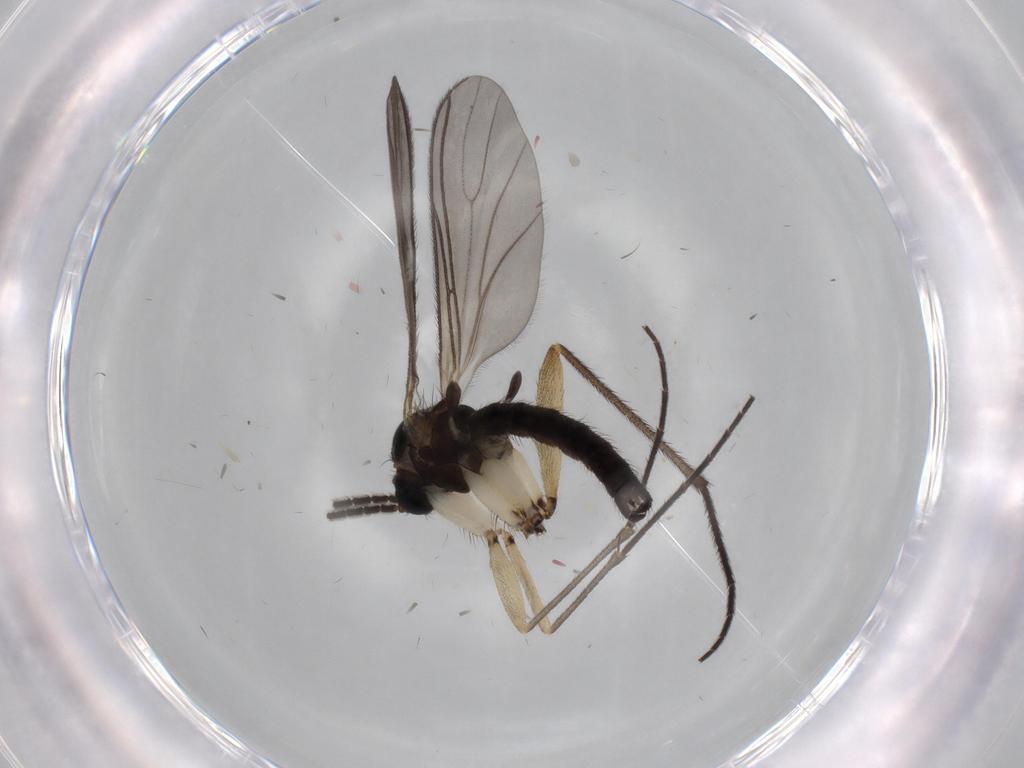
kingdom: Animalia
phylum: Arthropoda
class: Insecta
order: Diptera
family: Sciaridae
